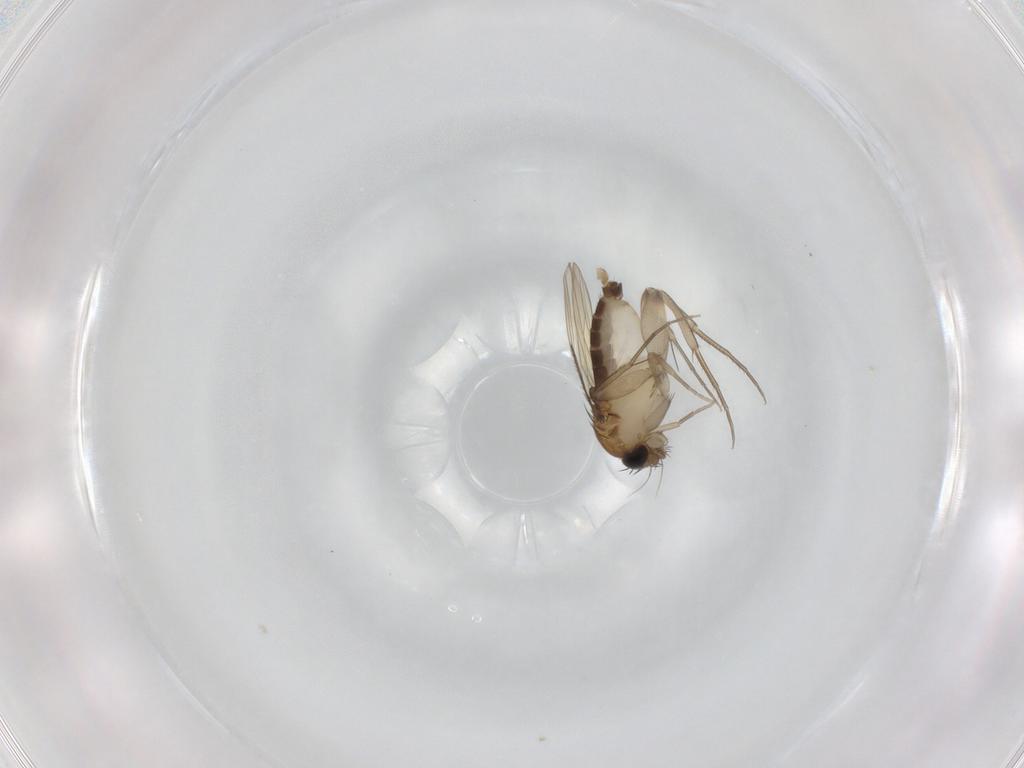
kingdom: Animalia
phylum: Arthropoda
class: Insecta
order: Diptera
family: Phoridae
